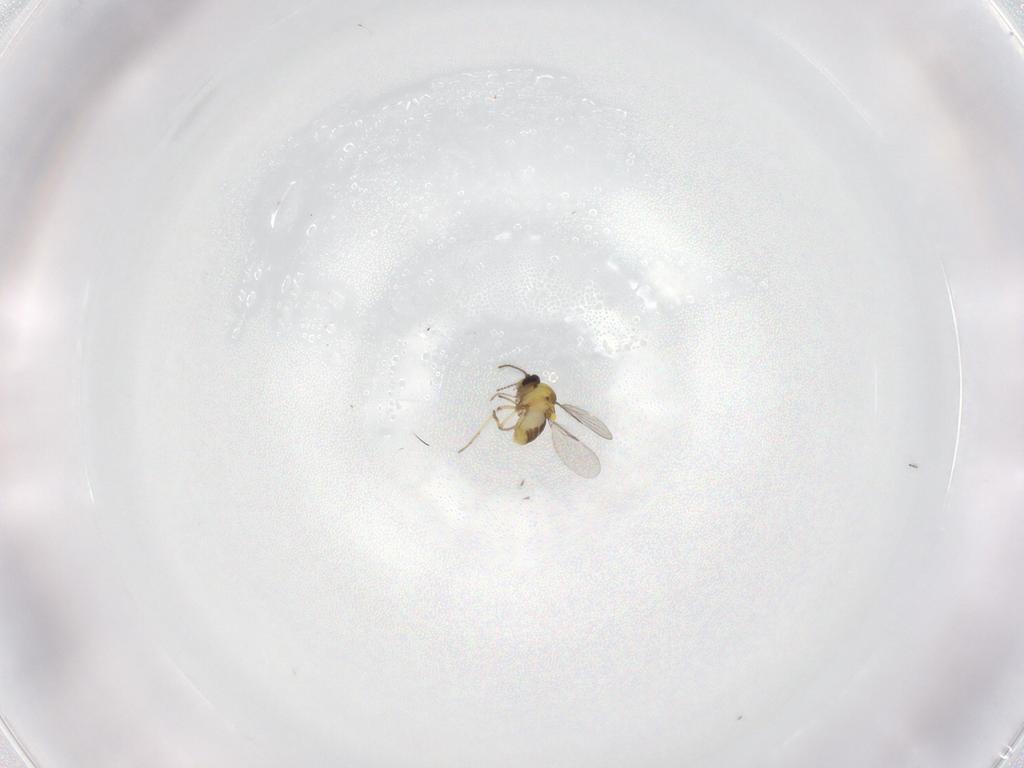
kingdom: Animalia
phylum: Arthropoda
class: Insecta
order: Diptera
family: Ceratopogonidae
